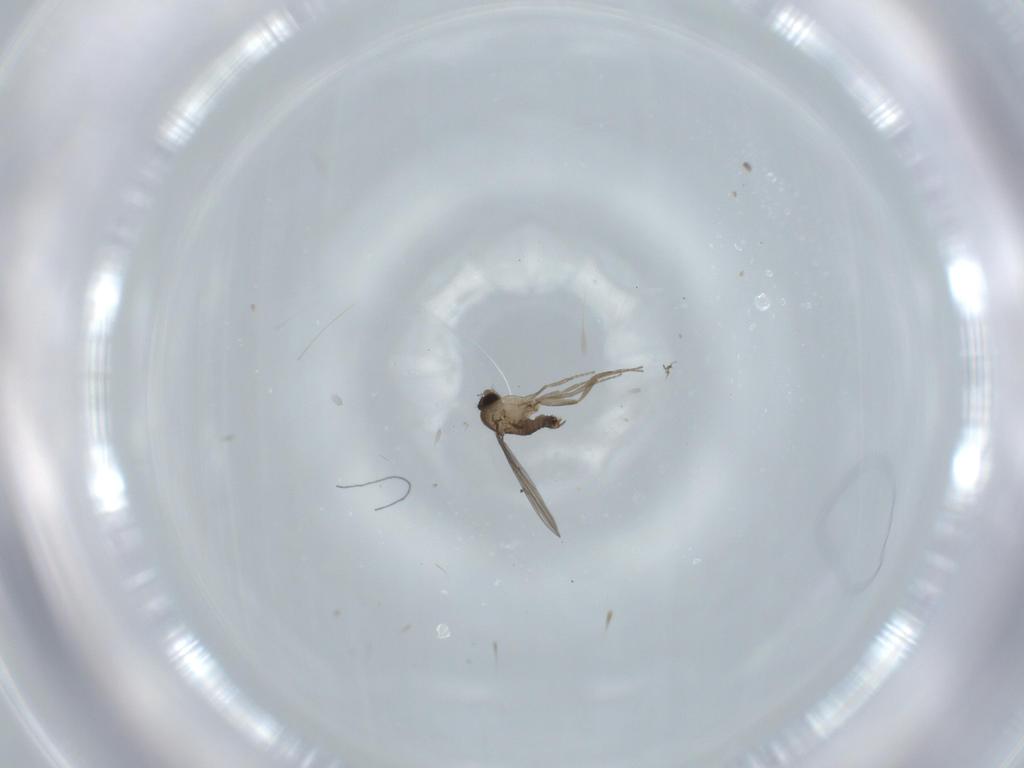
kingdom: Animalia
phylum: Arthropoda
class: Insecta
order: Diptera
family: Phoridae
